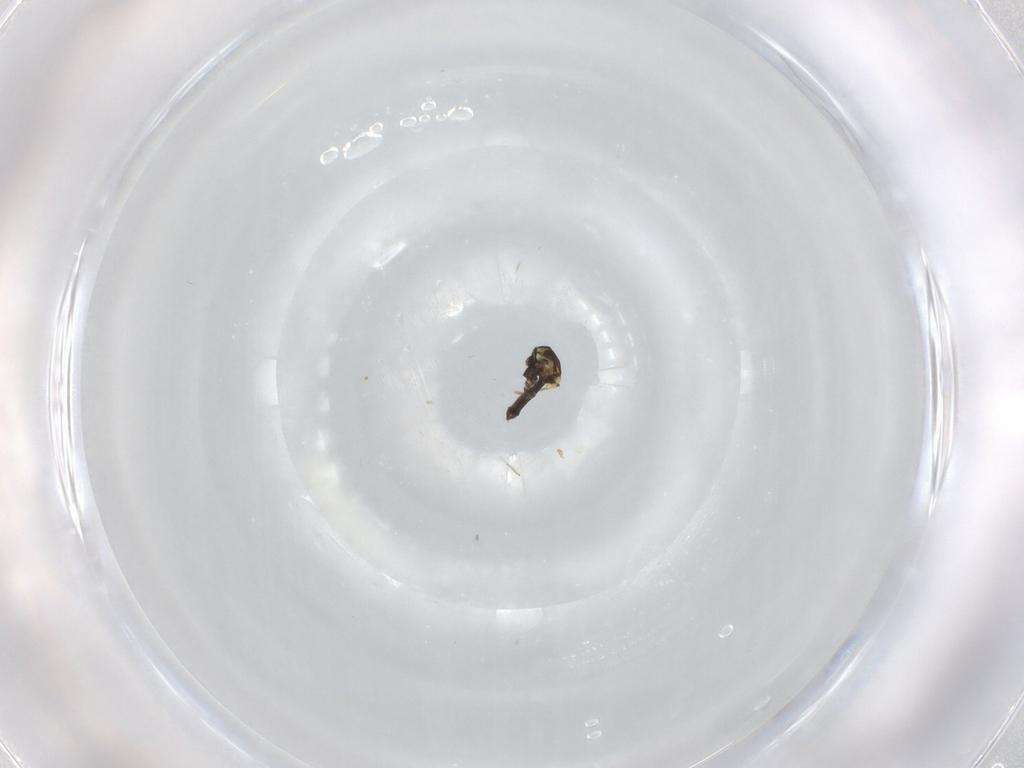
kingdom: Animalia
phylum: Arthropoda
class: Insecta
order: Diptera
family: Ceratopogonidae
